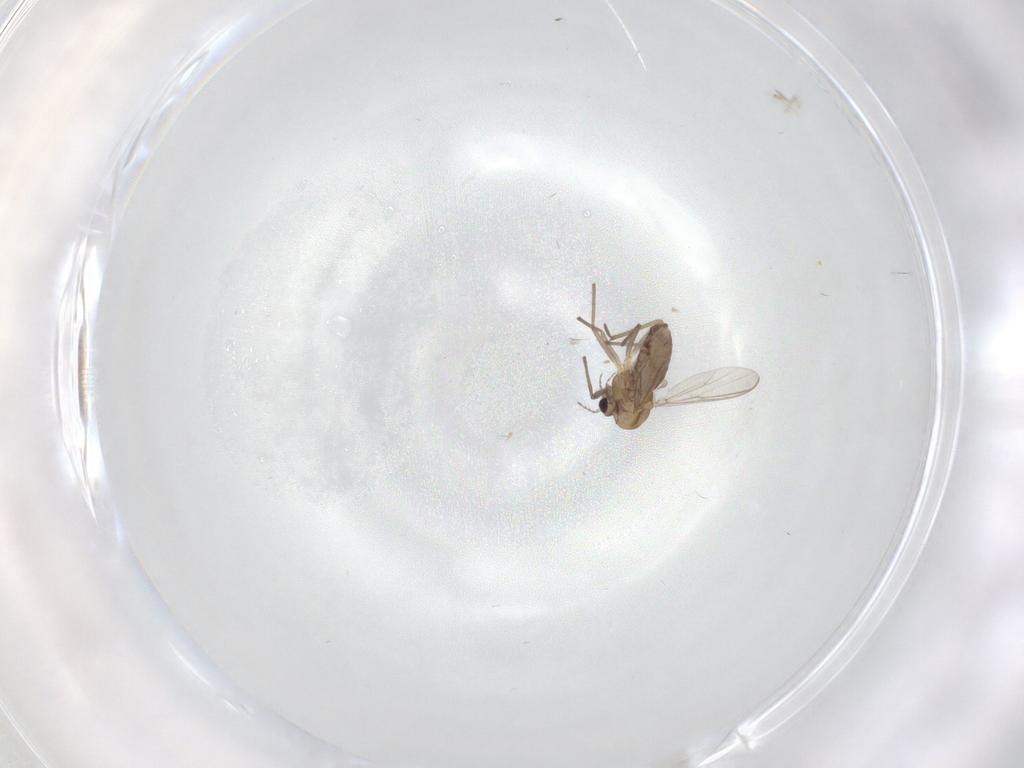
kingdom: Animalia
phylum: Arthropoda
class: Insecta
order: Diptera
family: Chironomidae
